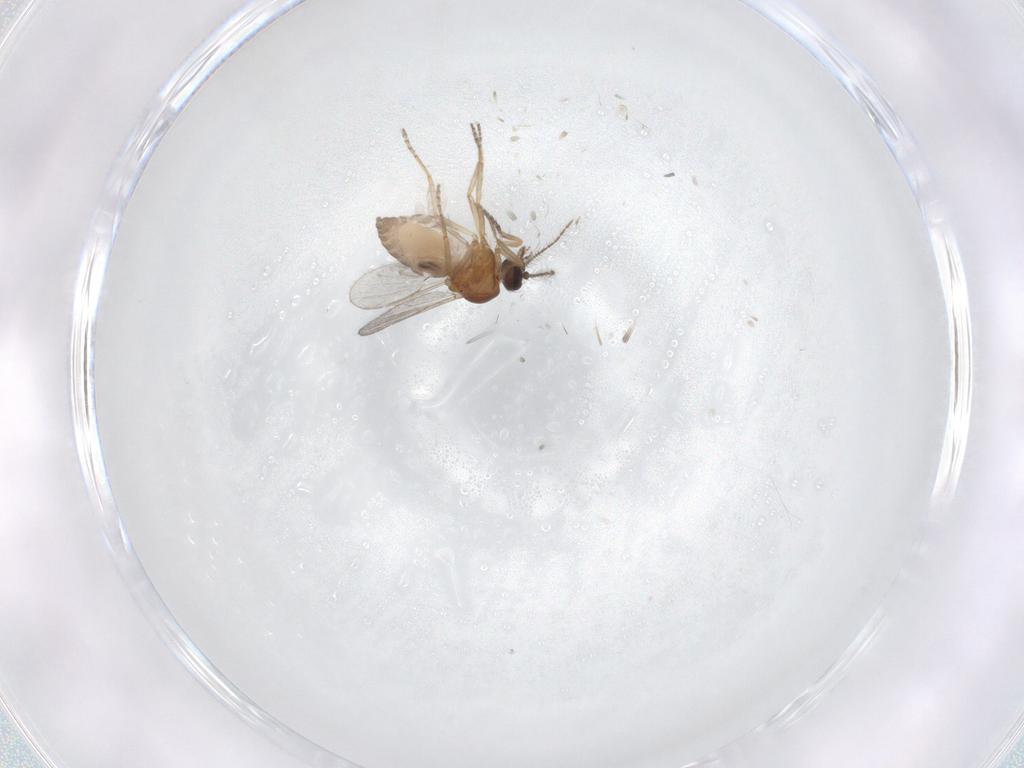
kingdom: Animalia
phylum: Arthropoda
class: Insecta
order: Diptera
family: Ceratopogonidae
